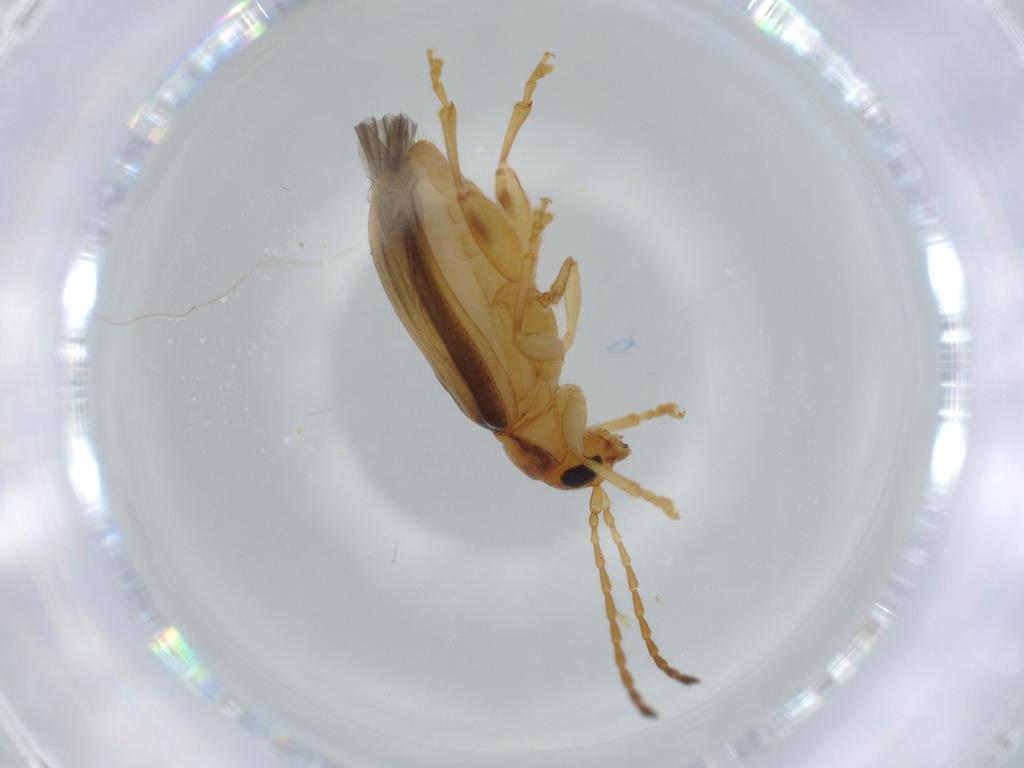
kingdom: Animalia
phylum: Arthropoda
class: Insecta
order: Coleoptera
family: Chrysomelidae
